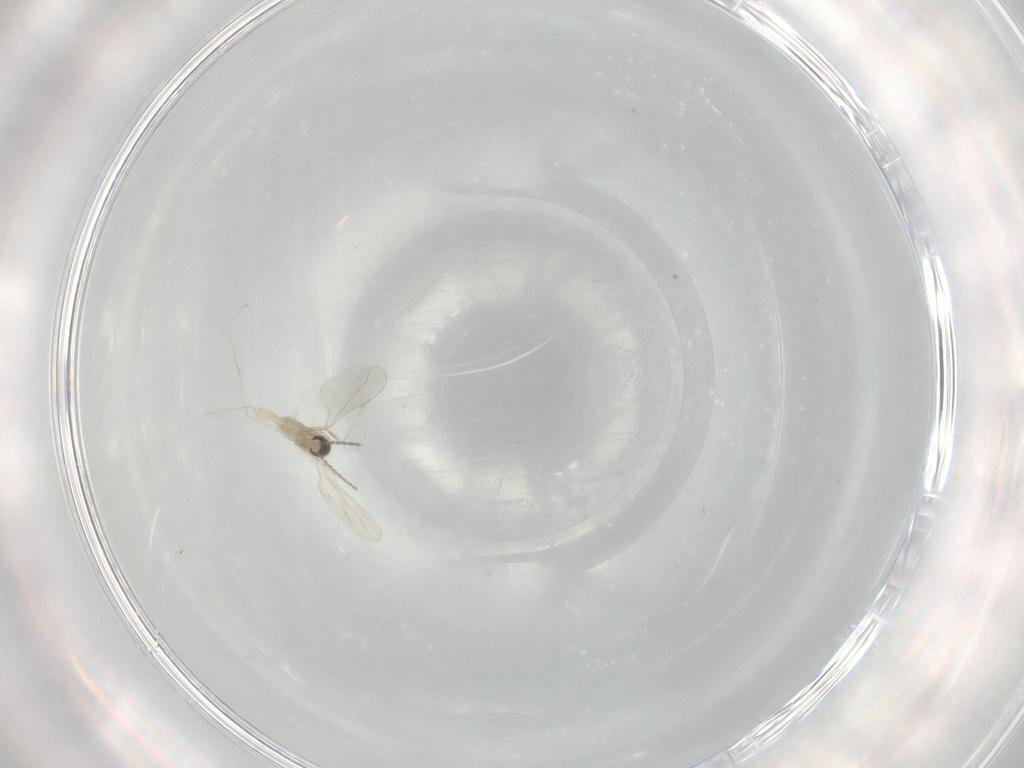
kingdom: Animalia
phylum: Arthropoda
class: Insecta
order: Diptera
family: Cecidomyiidae
